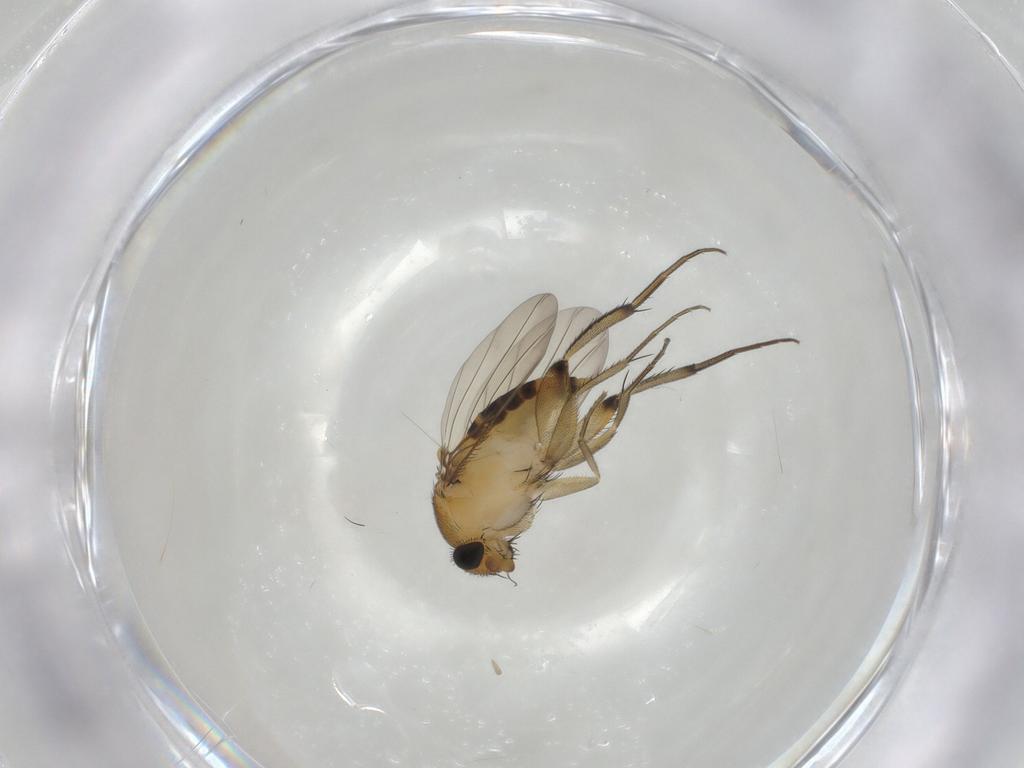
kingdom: Animalia
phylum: Arthropoda
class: Insecta
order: Diptera
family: Phoridae
